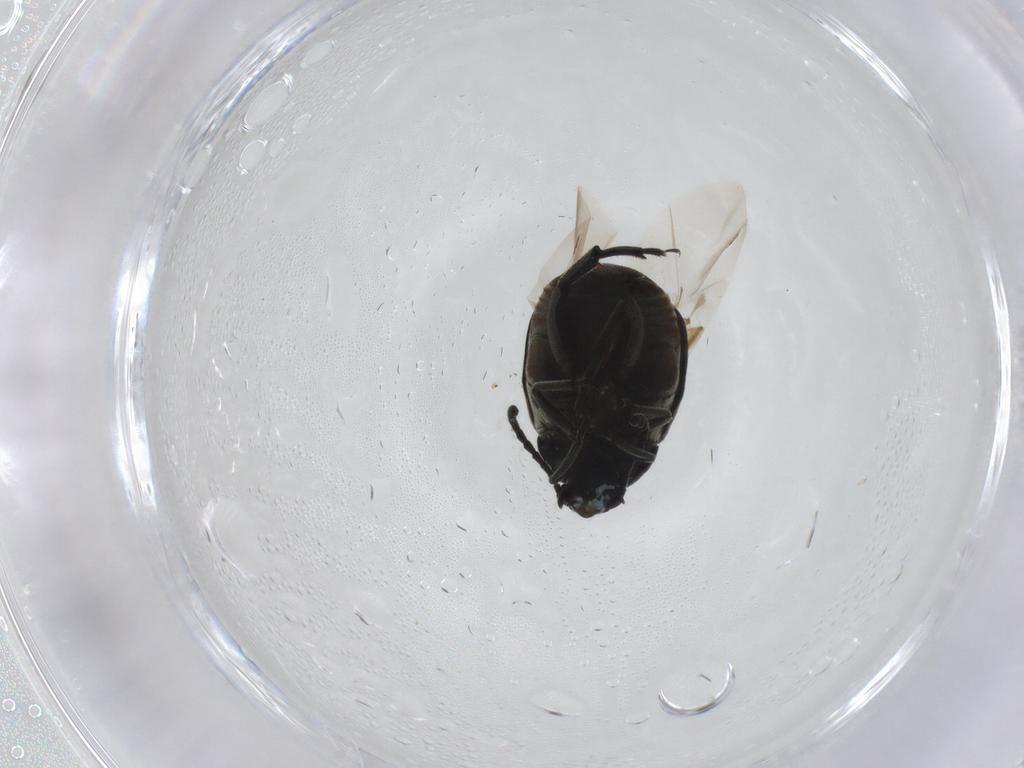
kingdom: Animalia
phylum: Arthropoda
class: Insecta
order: Coleoptera
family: Chrysomelidae
